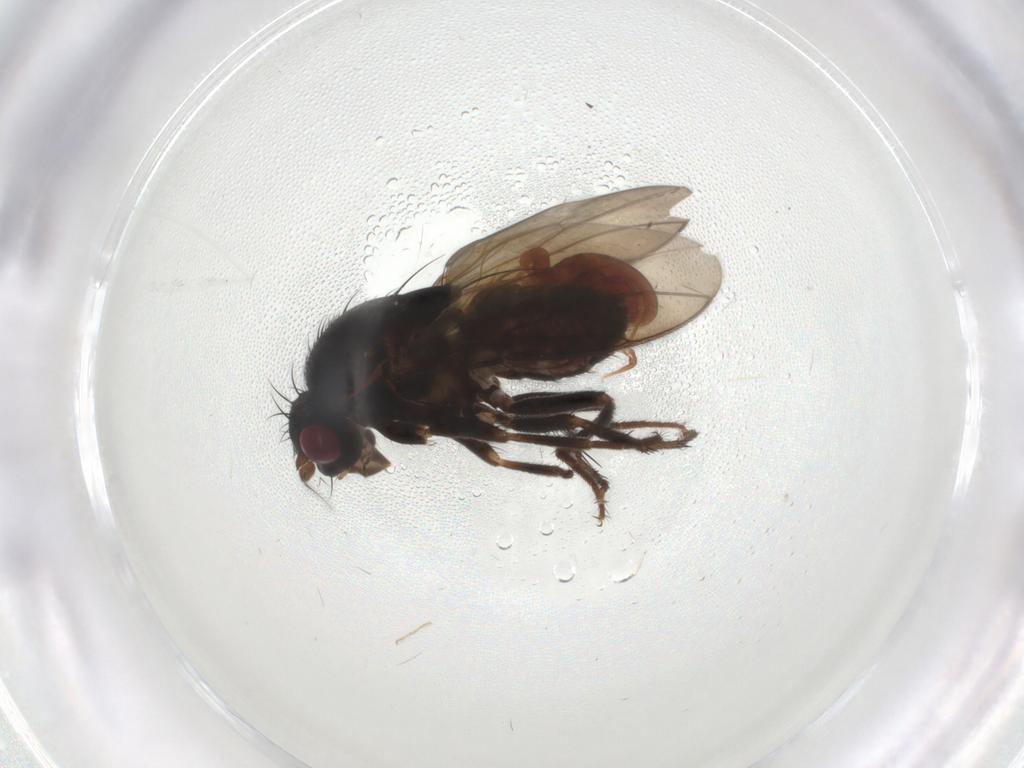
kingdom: Animalia
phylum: Arthropoda
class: Insecta
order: Diptera
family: Sphaeroceridae
